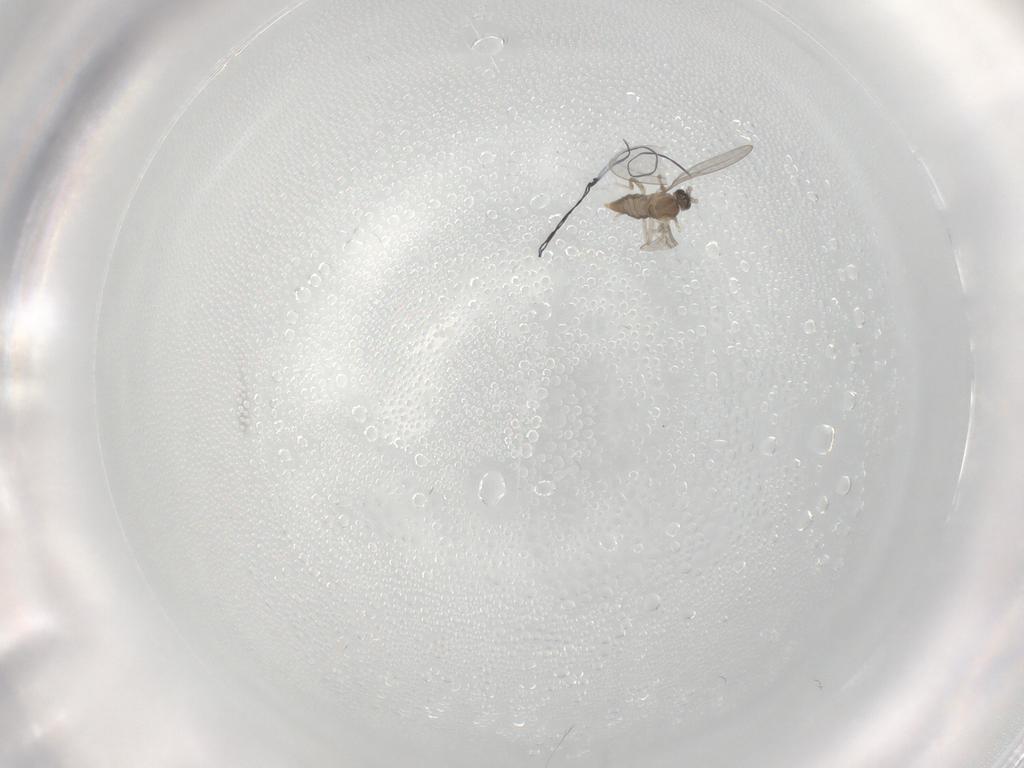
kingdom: Animalia
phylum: Arthropoda
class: Insecta
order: Diptera
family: Cecidomyiidae
